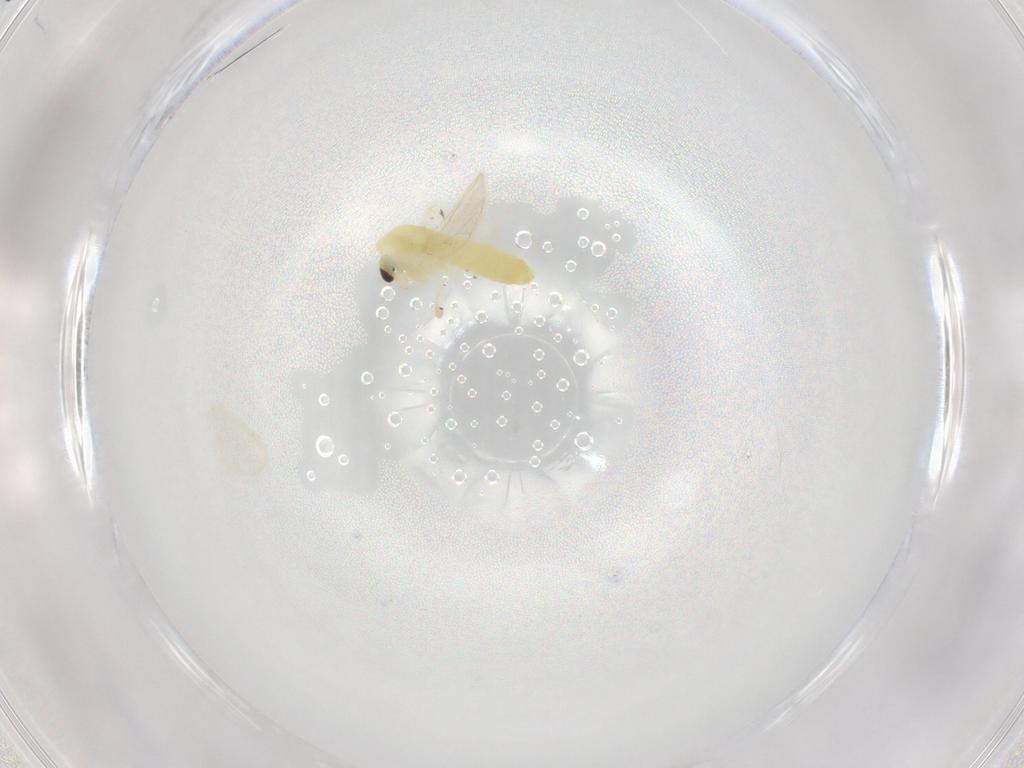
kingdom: Animalia
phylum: Arthropoda
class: Insecta
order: Diptera
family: Chironomidae
